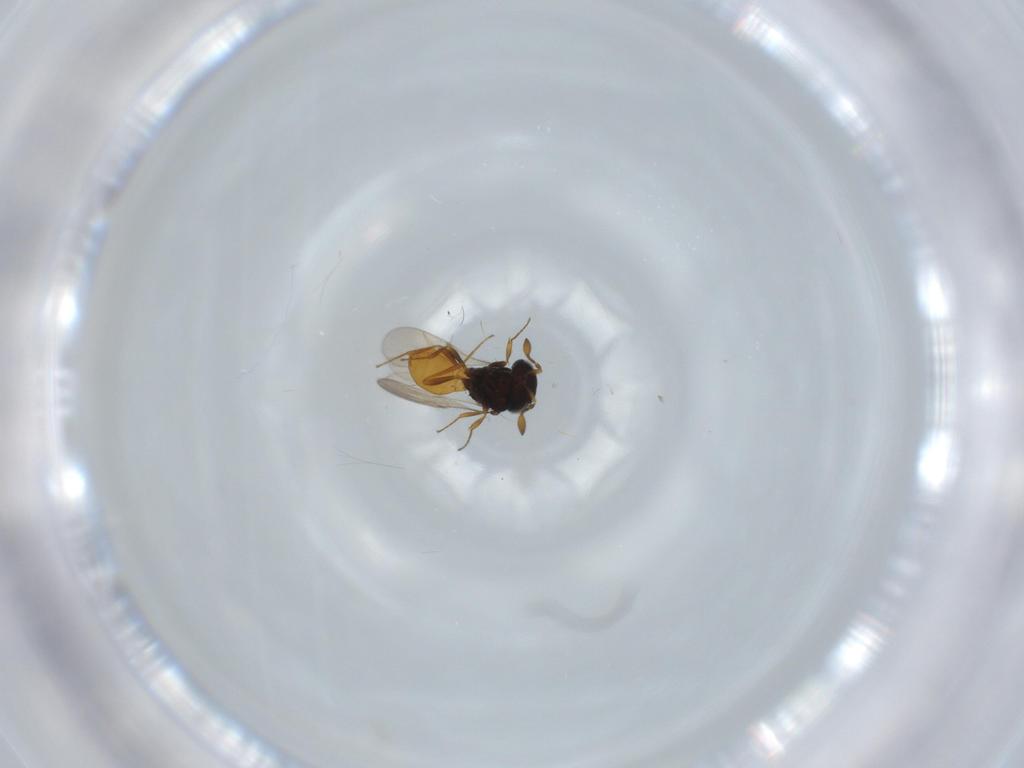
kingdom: Animalia
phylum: Arthropoda
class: Insecta
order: Hymenoptera
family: Scelionidae
